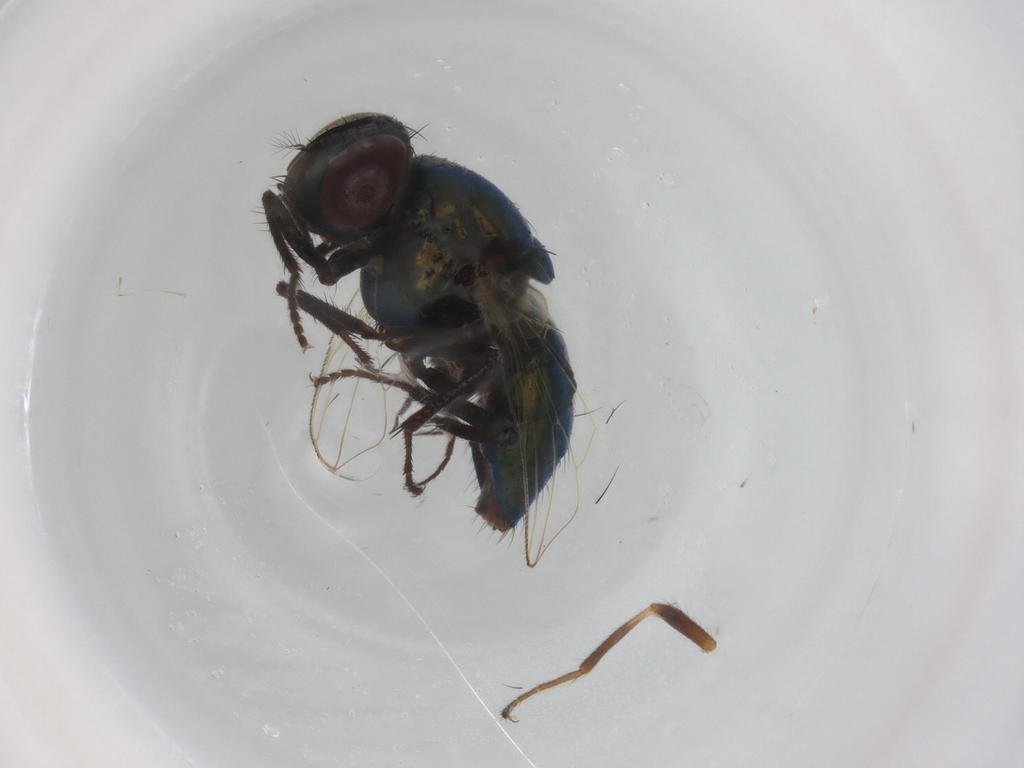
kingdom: Animalia
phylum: Arthropoda
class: Insecta
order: Diptera
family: Muscidae
